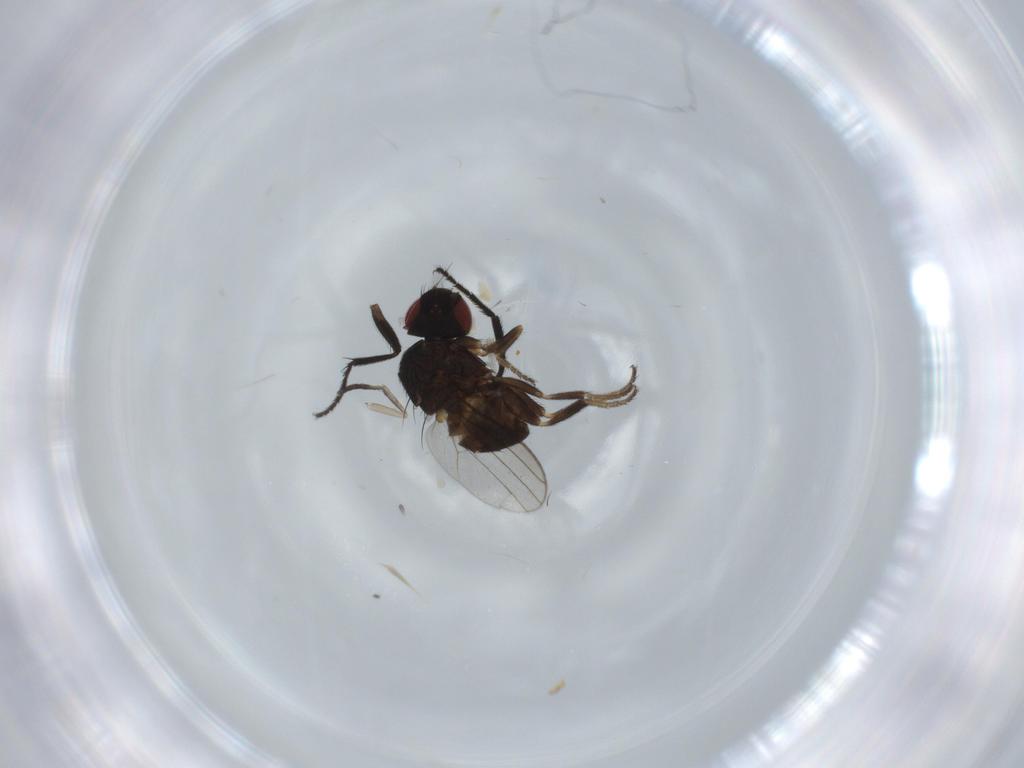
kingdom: Animalia
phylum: Arthropoda
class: Insecta
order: Diptera
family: Milichiidae
